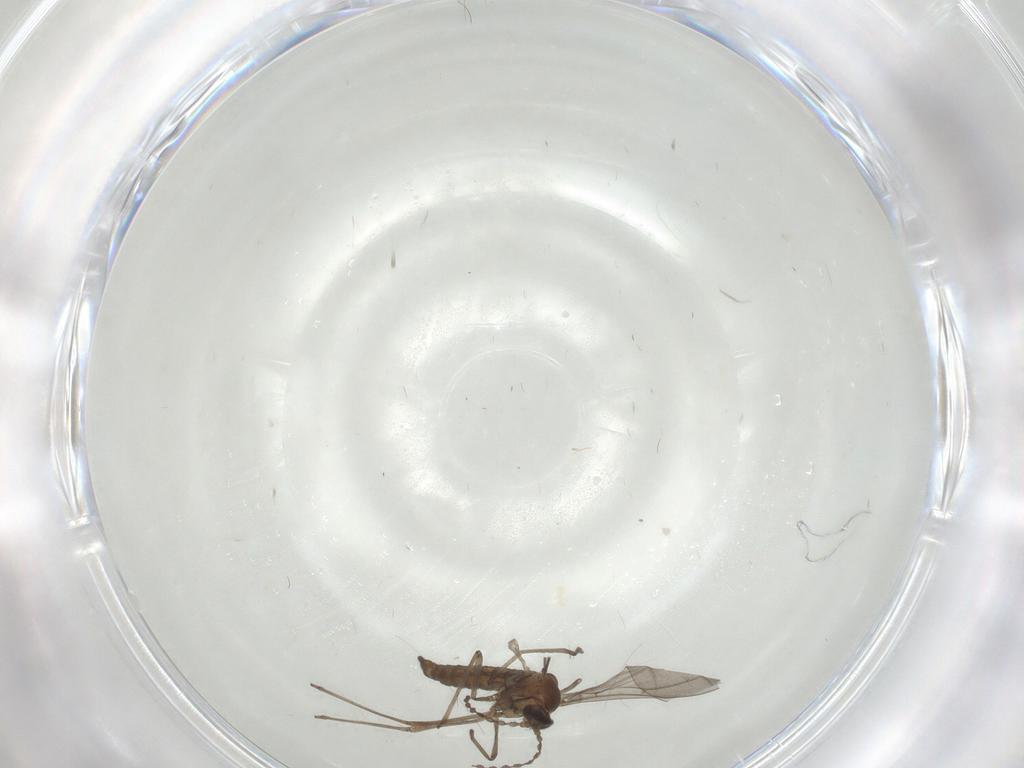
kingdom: Animalia
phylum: Arthropoda
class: Insecta
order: Diptera
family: Cecidomyiidae
